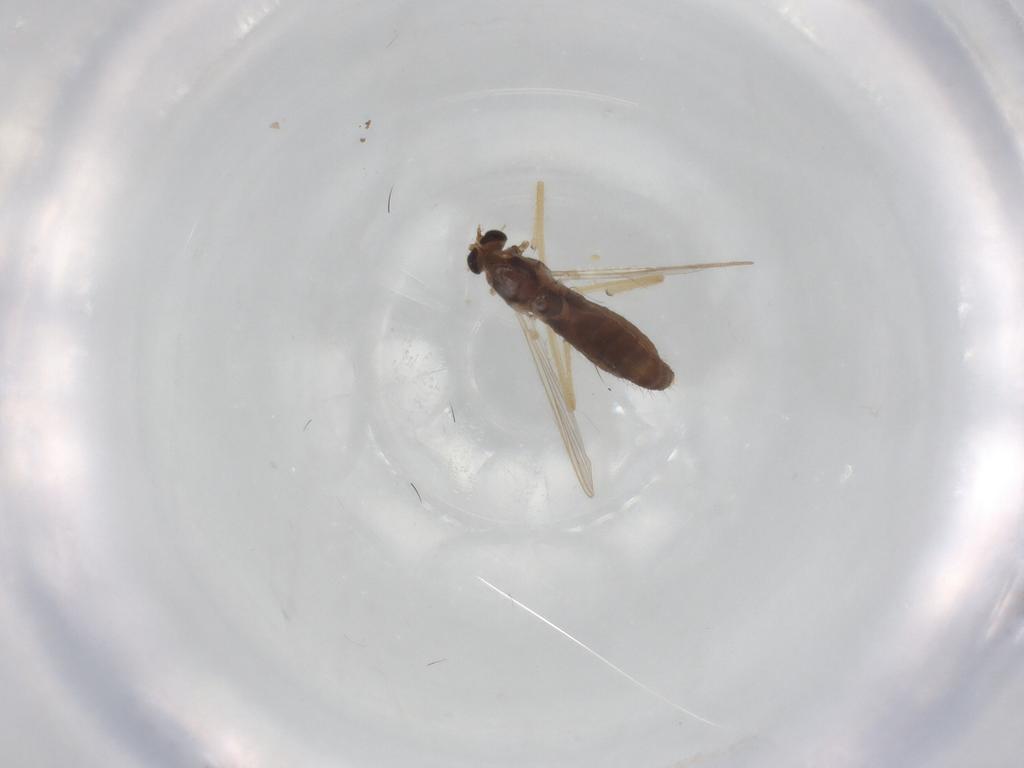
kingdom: Animalia
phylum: Arthropoda
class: Insecta
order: Diptera
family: Chironomidae
